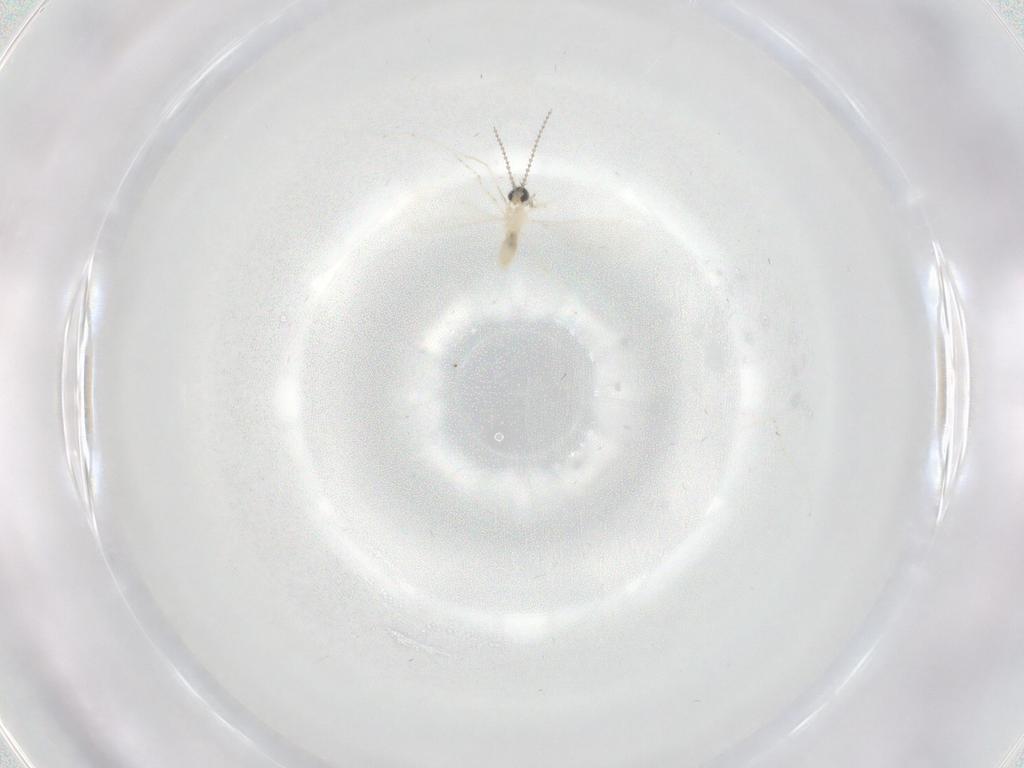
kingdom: Animalia
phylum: Arthropoda
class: Insecta
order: Diptera
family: Cecidomyiidae
